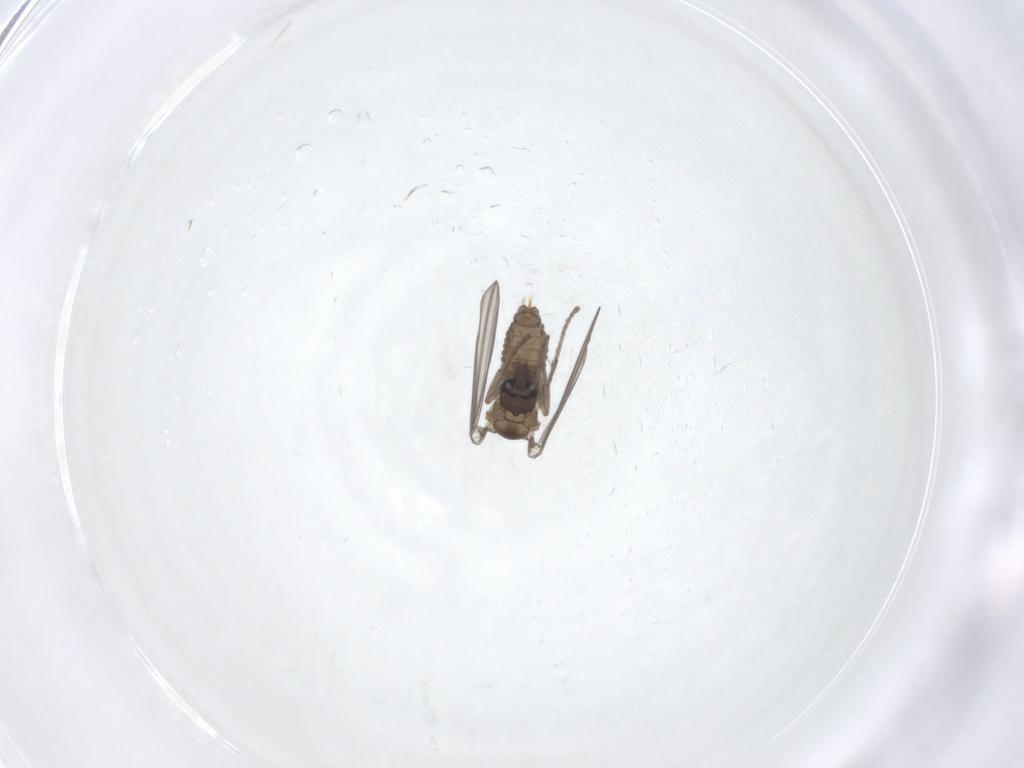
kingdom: Animalia
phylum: Arthropoda
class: Insecta
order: Diptera
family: Psychodidae
